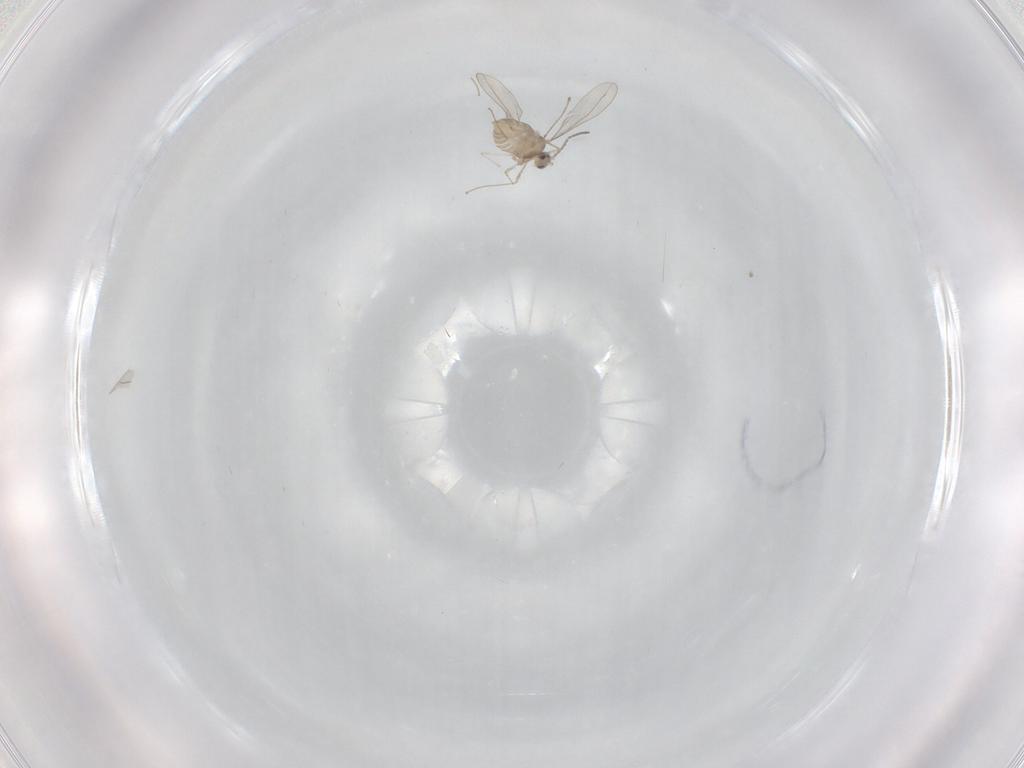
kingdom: Animalia
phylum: Arthropoda
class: Insecta
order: Diptera
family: Cecidomyiidae
